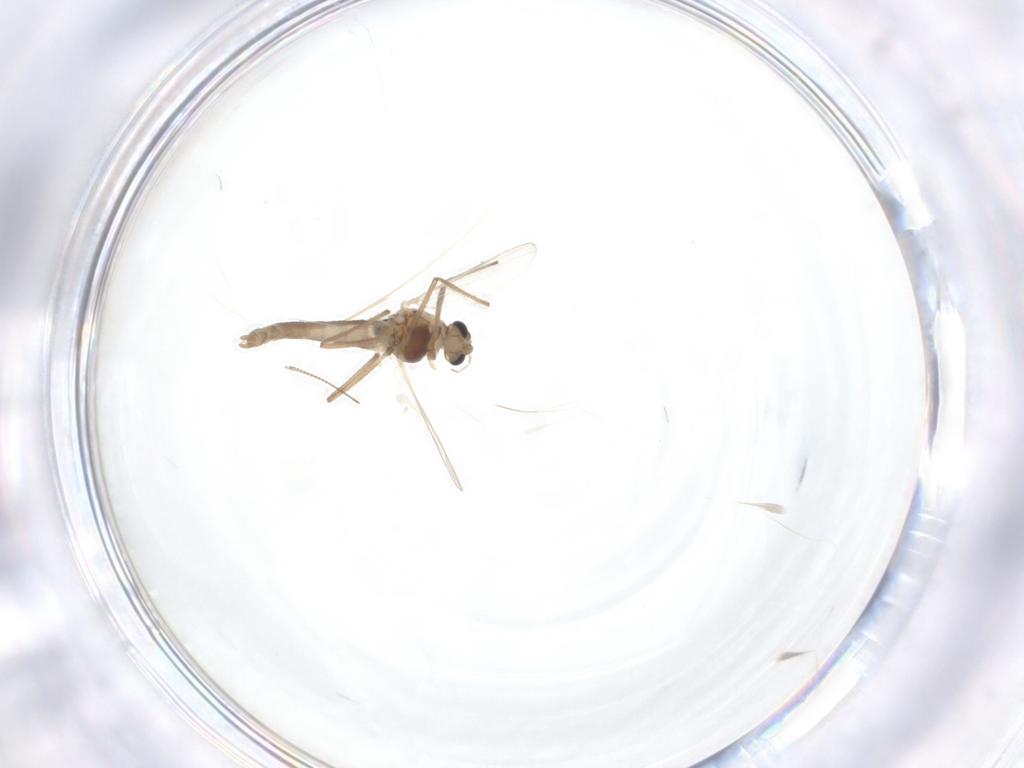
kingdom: Animalia
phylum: Arthropoda
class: Insecta
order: Diptera
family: Chironomidae
